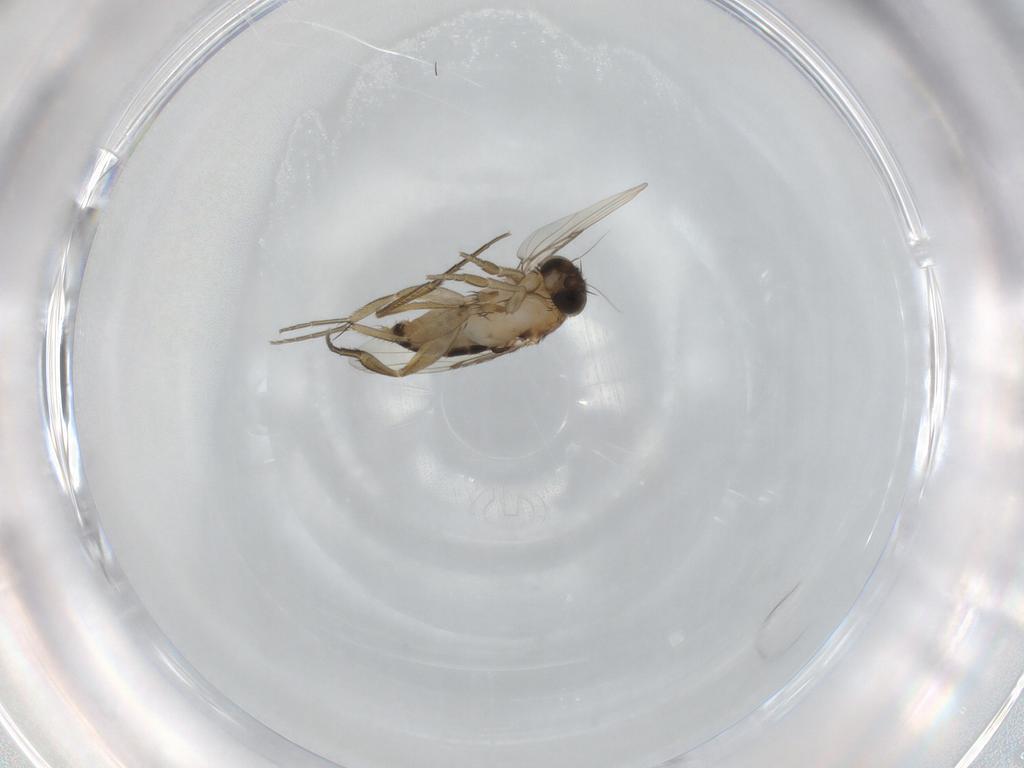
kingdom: Animalia
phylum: Arthropoda
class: Insecta
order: Diptera
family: Phoridae
